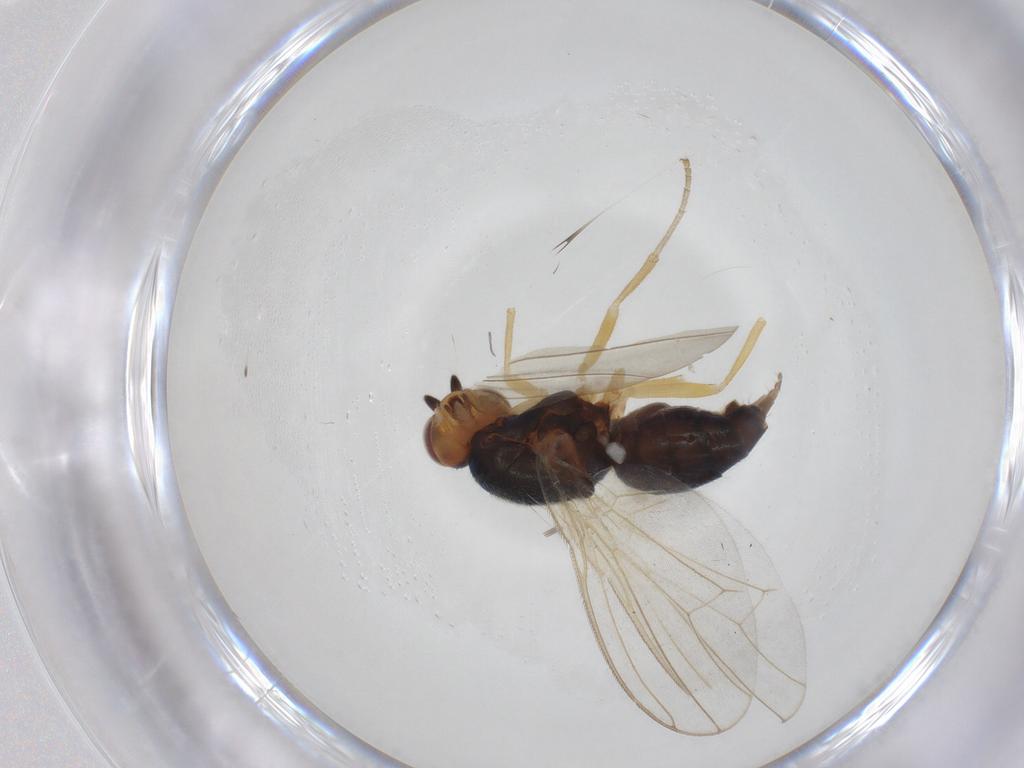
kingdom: Animalia
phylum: Arthropoda
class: Insecta
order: Diptera
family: Psilidae
